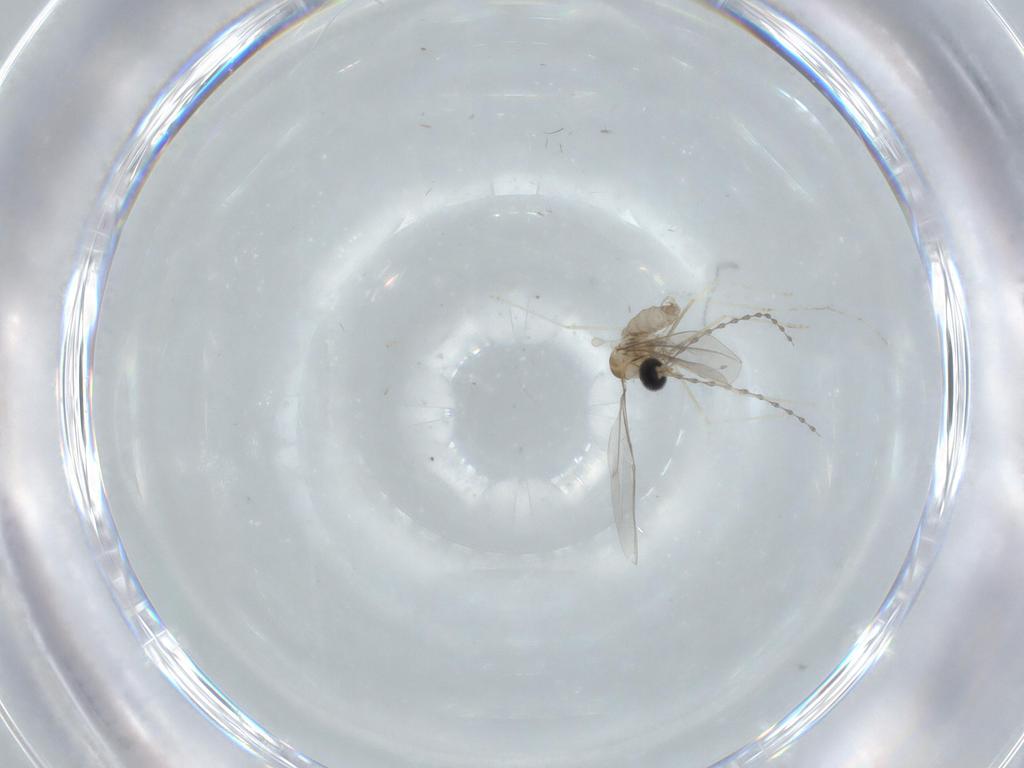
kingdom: Animalia
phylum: Arthropoda
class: Insecta
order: Diptera
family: Cecidomyiidae
